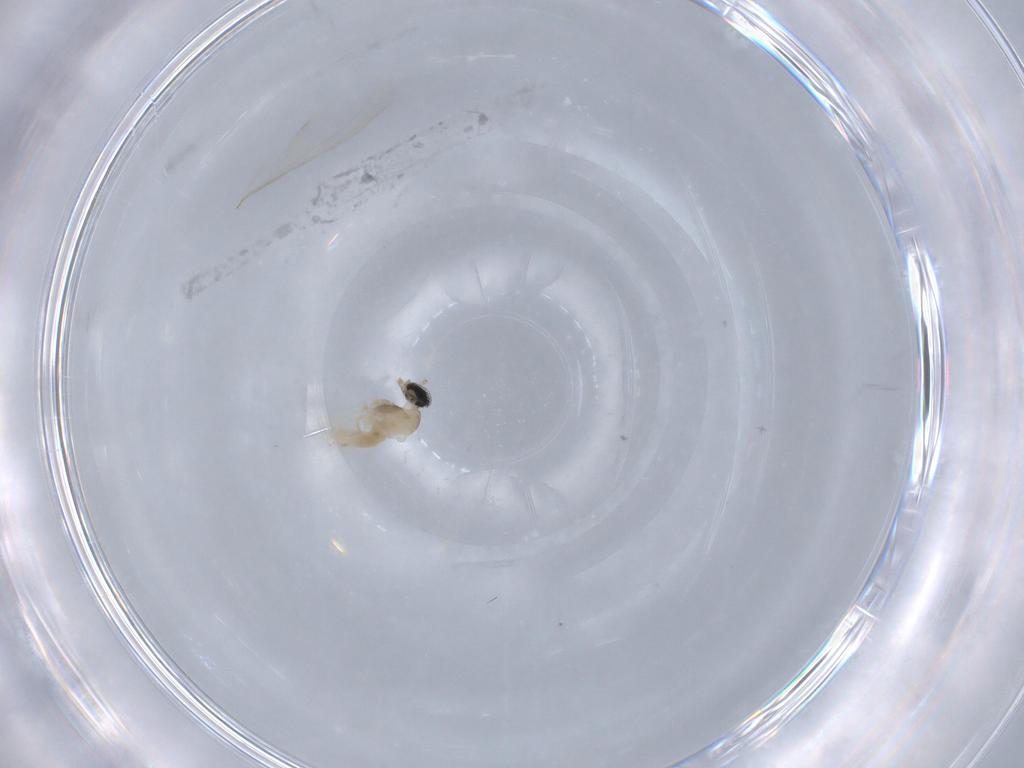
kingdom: Animalia
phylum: Arthropoda
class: Insecta
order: Diptera
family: Cecidomyiidae
